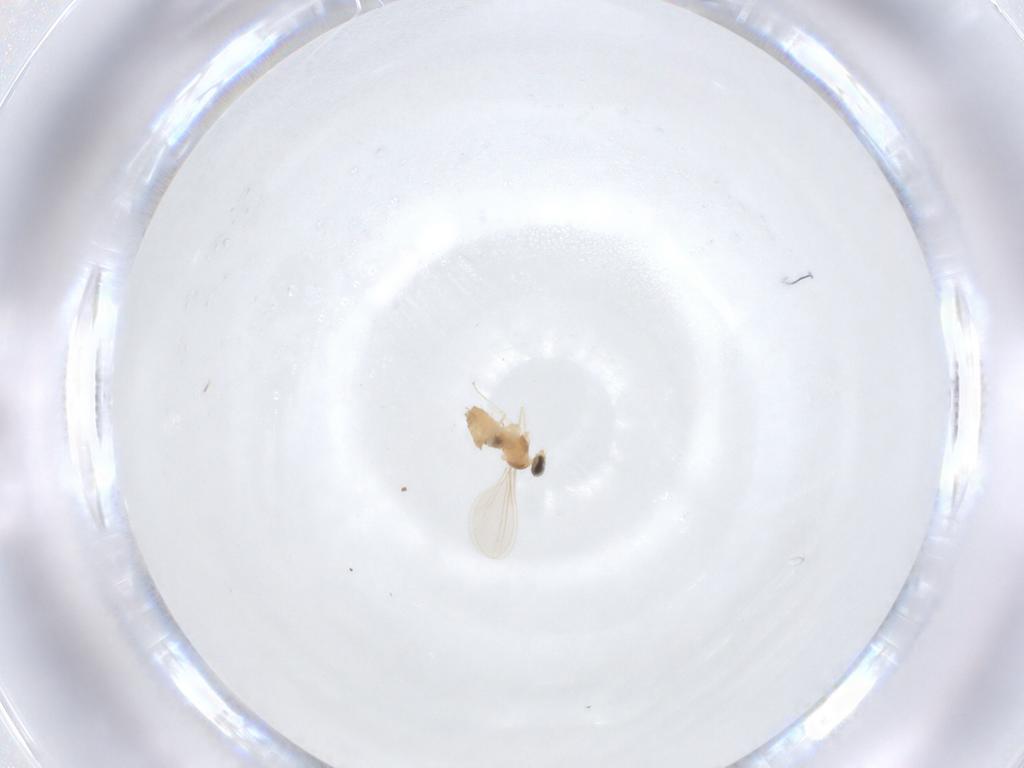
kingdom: Animalia
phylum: Arthropoda
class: Insecta
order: Diptera
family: Cecidomyiidae
